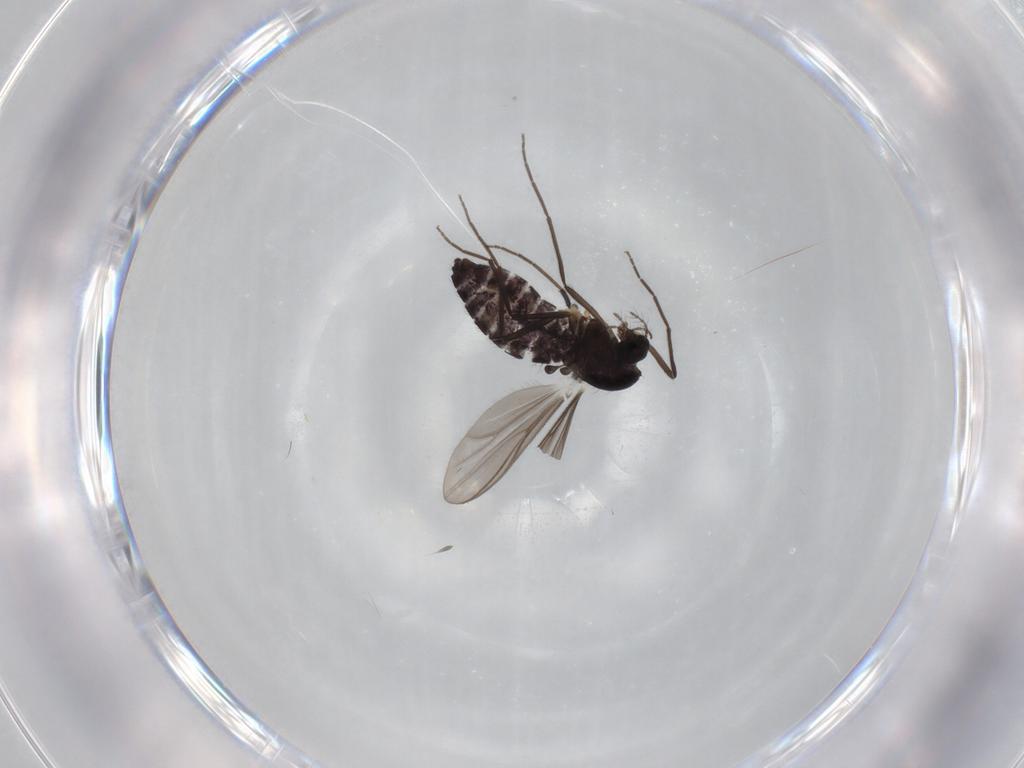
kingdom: Animalia
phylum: Arthropoda
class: Insecta
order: Diptera
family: Chironomidae
